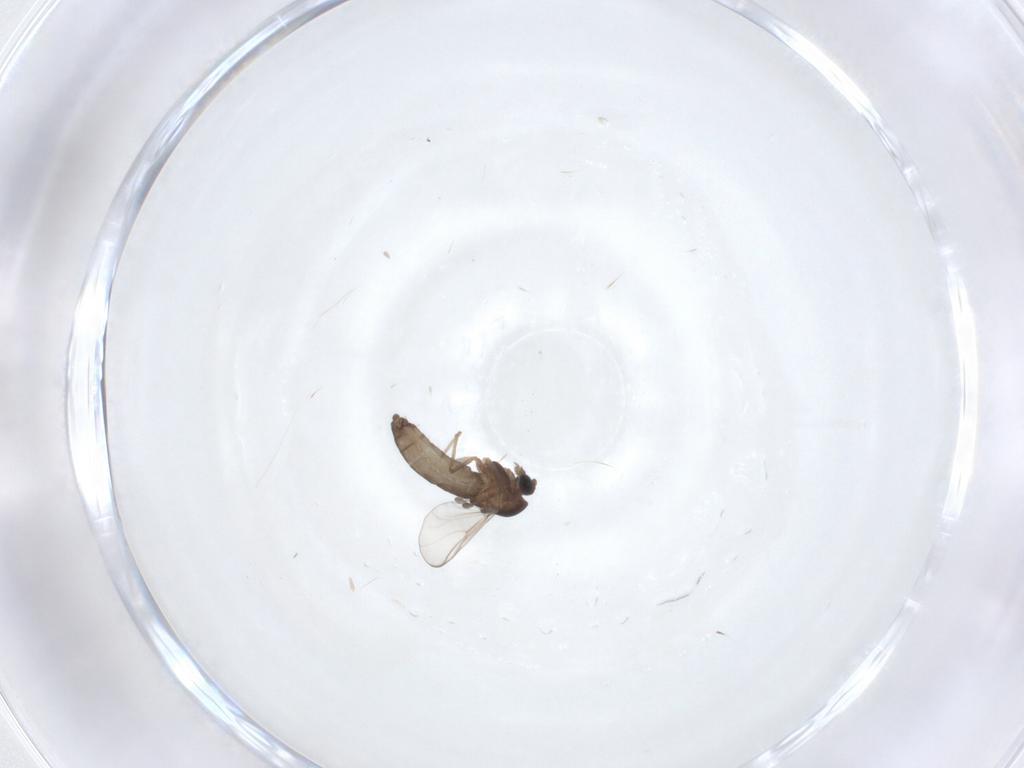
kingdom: Animalia
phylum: Arthropoda
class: Insecta
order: Diptera
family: Chironomidae
